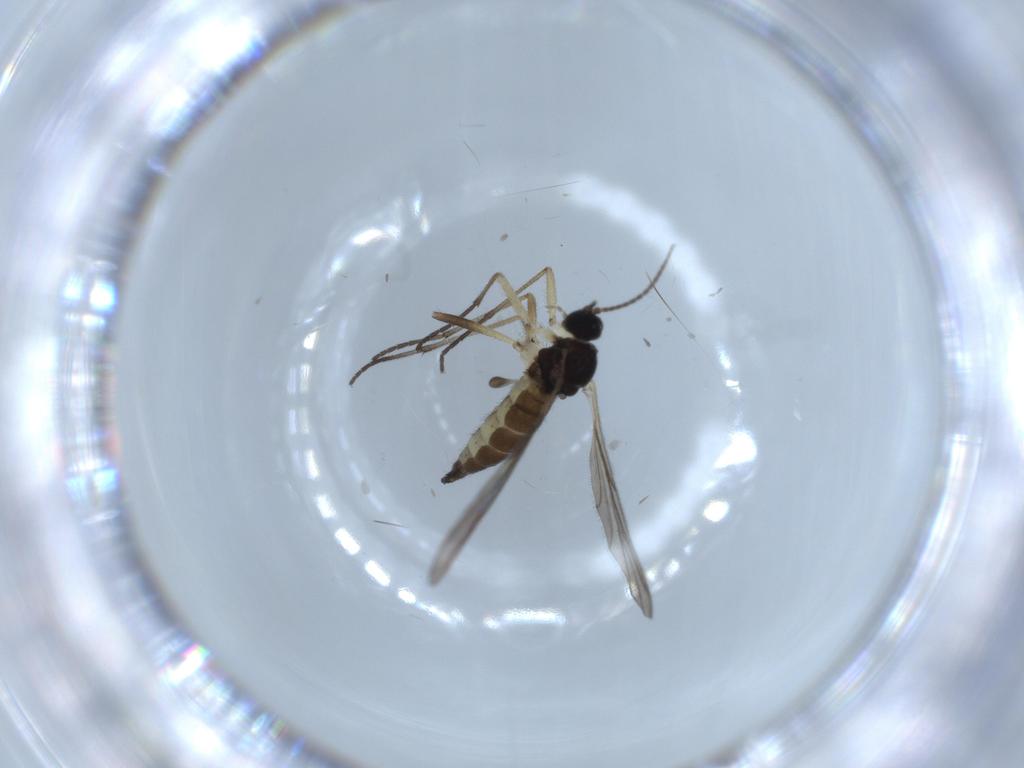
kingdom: Animalia
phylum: Arthropoda
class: Insecta
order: Diptera
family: Sciaridae
